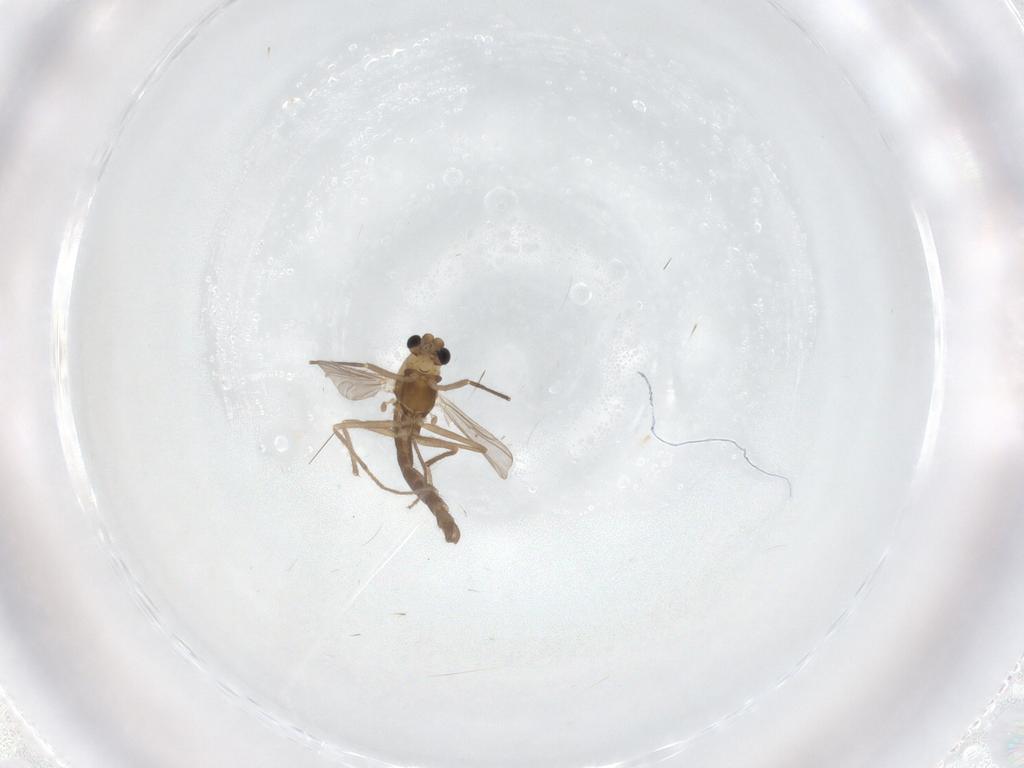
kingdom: Animalia
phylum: Arthropoda
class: Insecta
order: Diptera
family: Chironomidae
